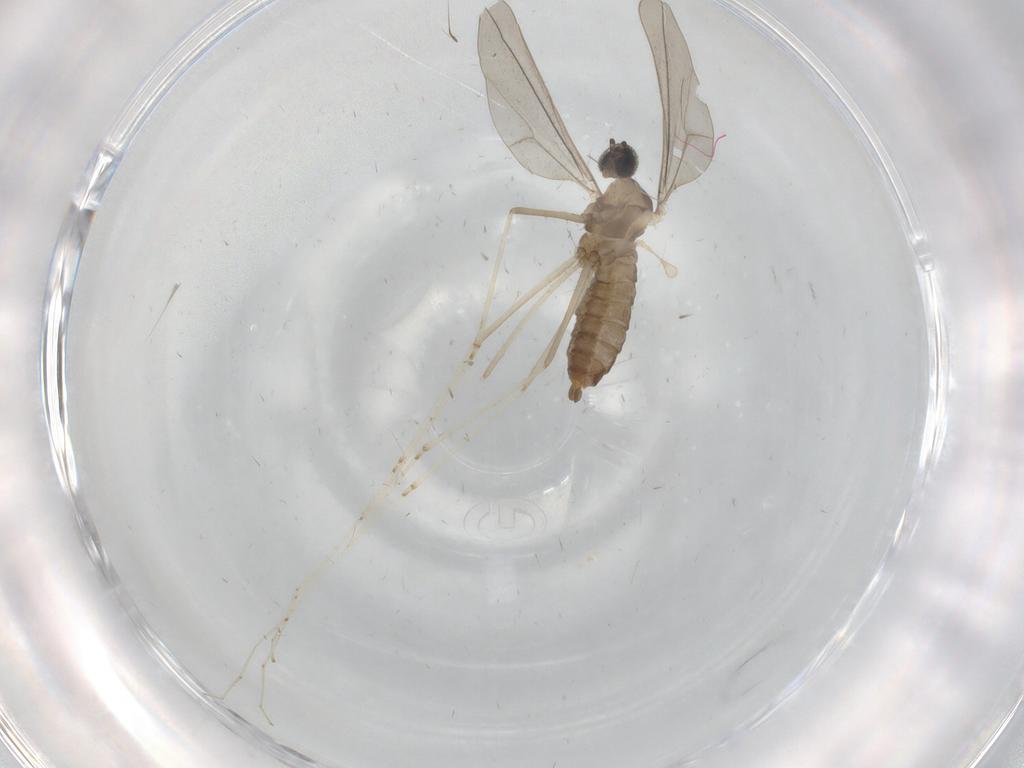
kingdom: Animalia
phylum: Arthropoda
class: Insecta
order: Diptera
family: Cecidomyiidae
